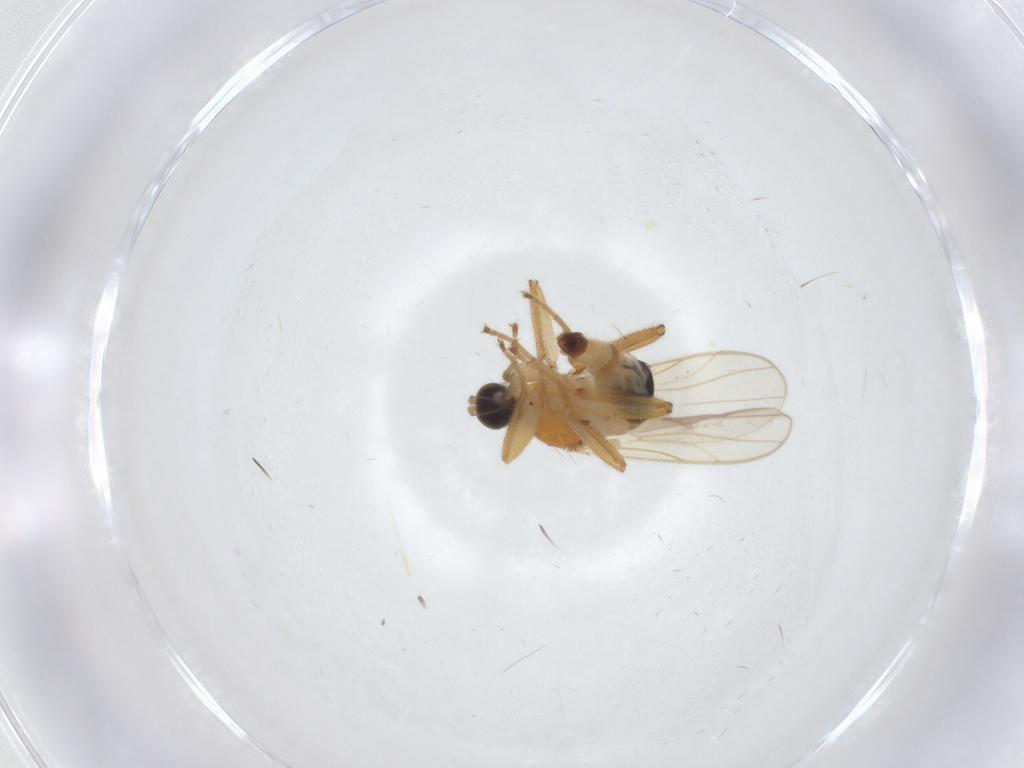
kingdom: Animalia
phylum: Arthropoda
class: Insecta
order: Diptera
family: Hybotidae
